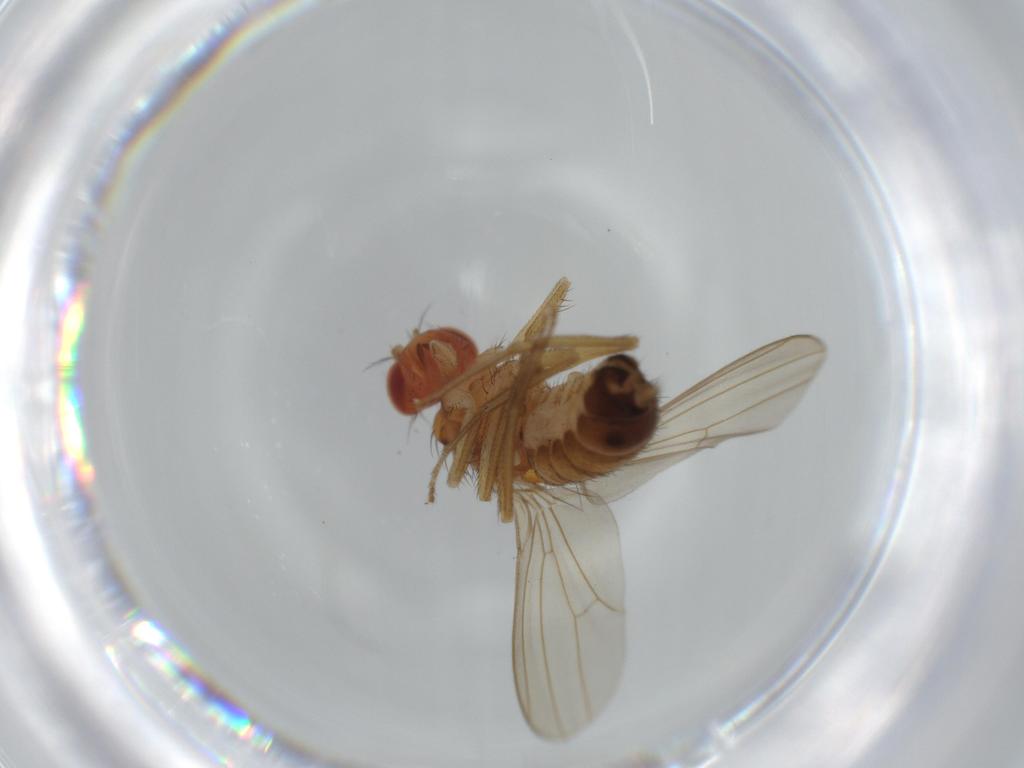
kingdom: Animalia
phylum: Arthropoda
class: Insecta
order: Diptera
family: Drosophilidae
